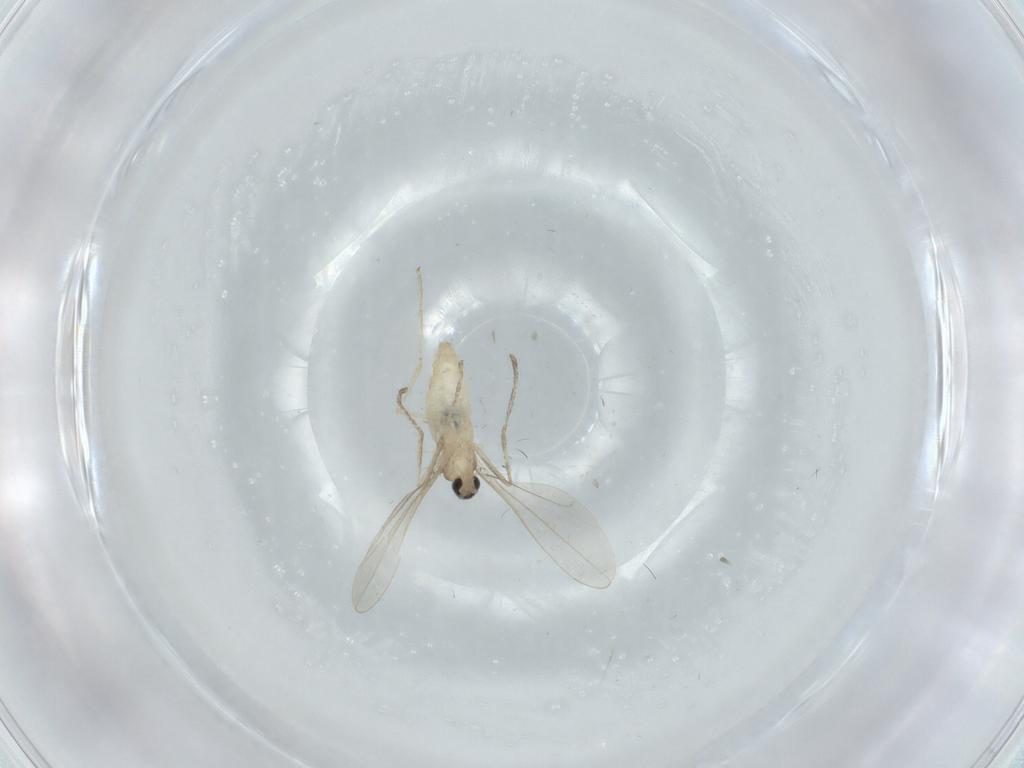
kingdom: Animalia
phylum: Arthropoda
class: Insecta
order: Diptera
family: Cecidomyiidae
